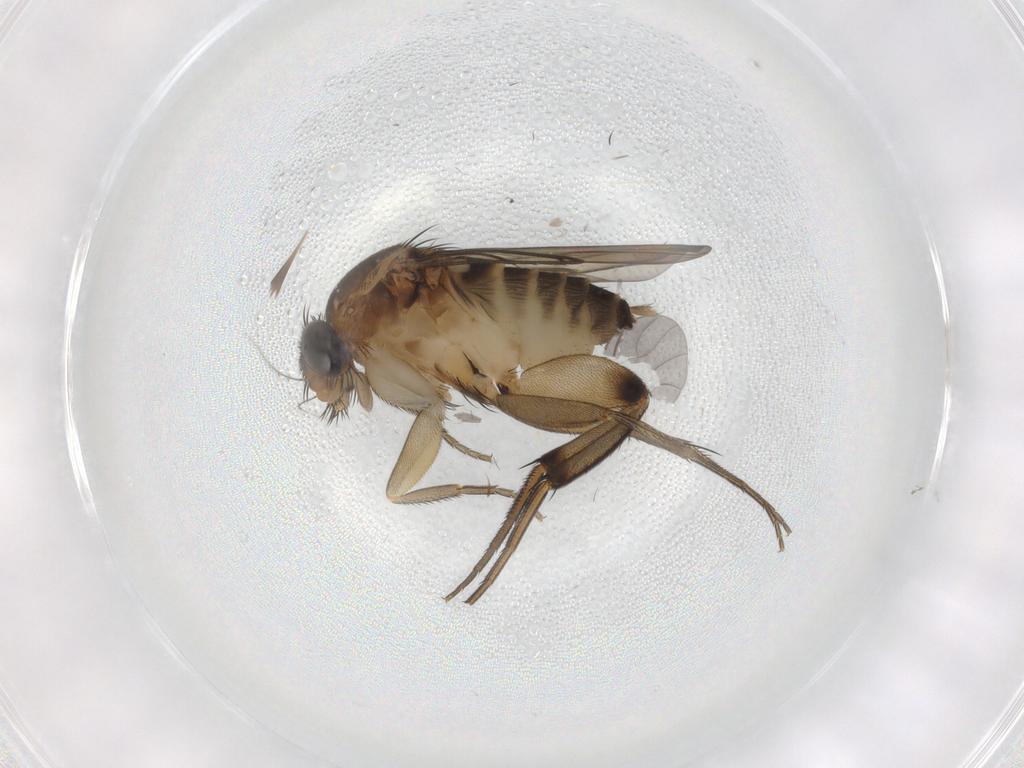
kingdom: Animalia
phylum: Arthropoda
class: Insecta
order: Diptera
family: Phoridae
